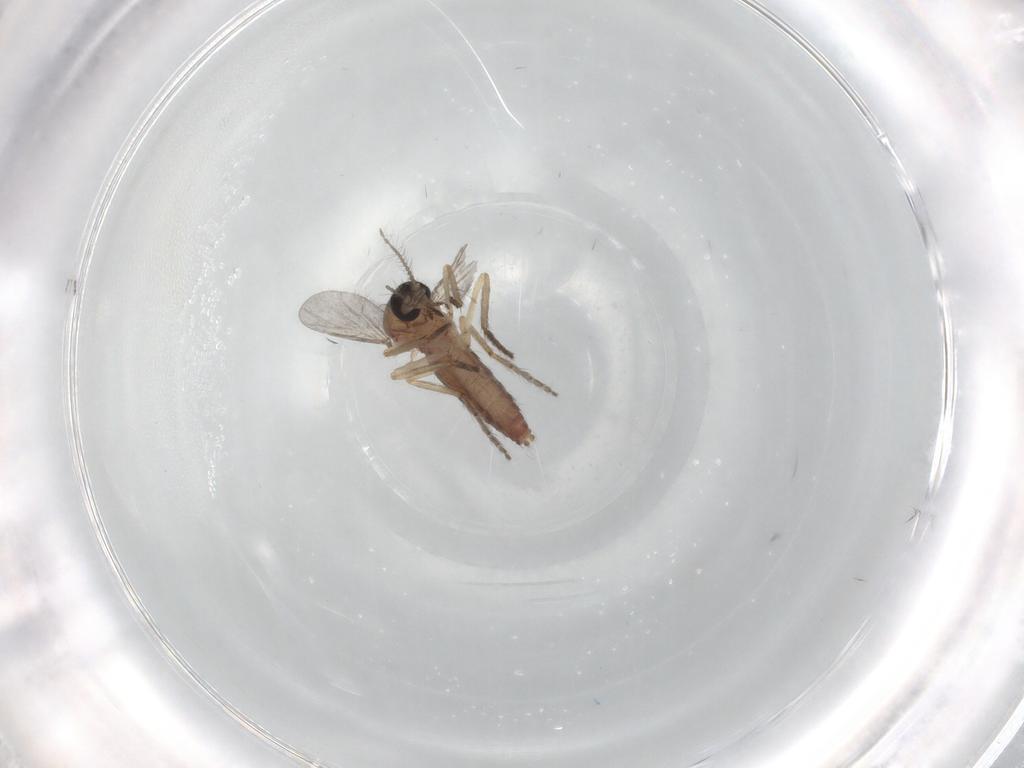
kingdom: Animalia
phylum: Arthropoda
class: Insecta
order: Diptera
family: Ceratopogonidae
